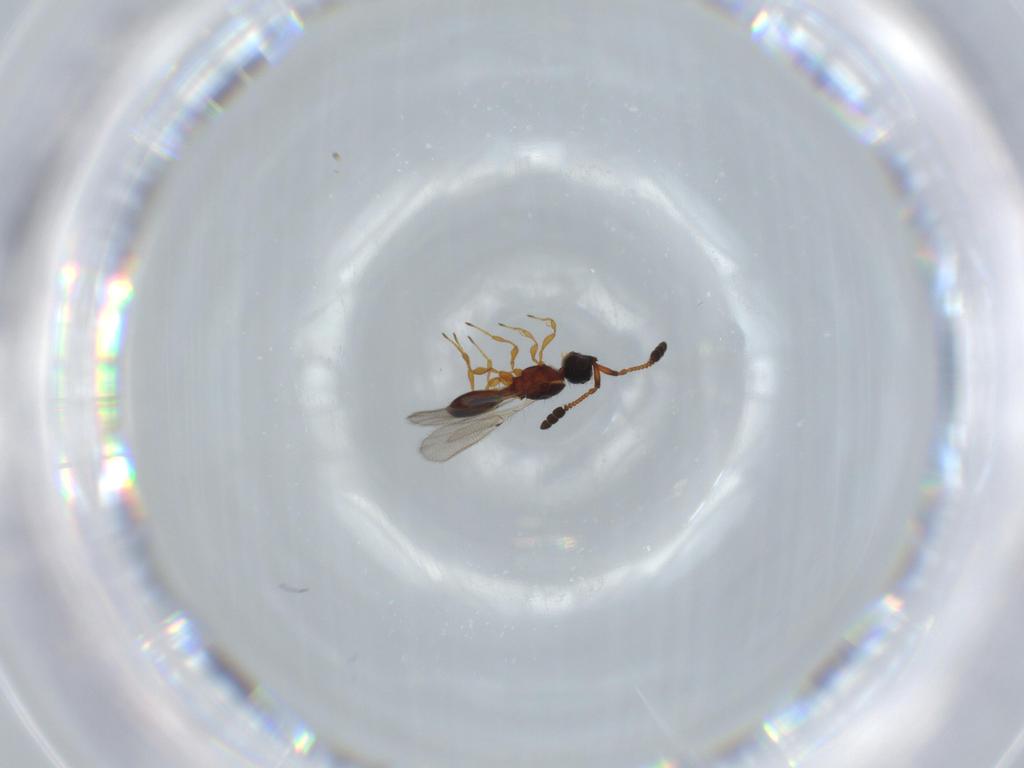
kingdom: Animalia
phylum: Arthropoda
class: Insecta
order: Hymenoptera
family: Diapriidae
